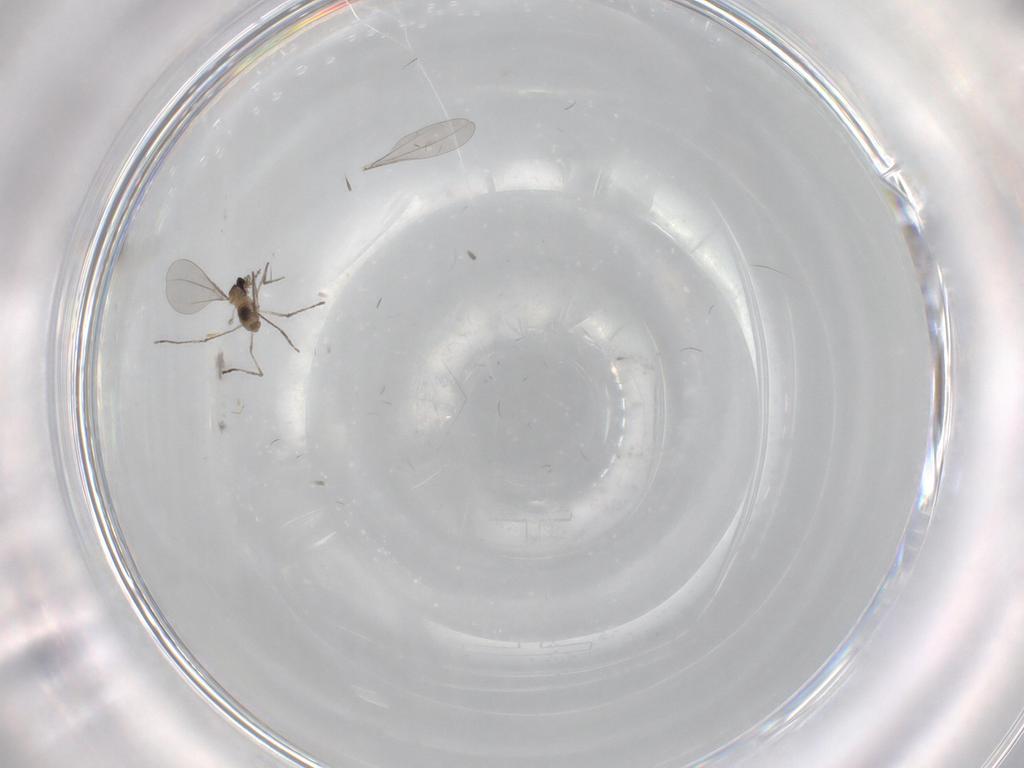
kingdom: Animalia
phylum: Arthropoda
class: Insecta
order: Diptera
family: Cecidomyiidae
